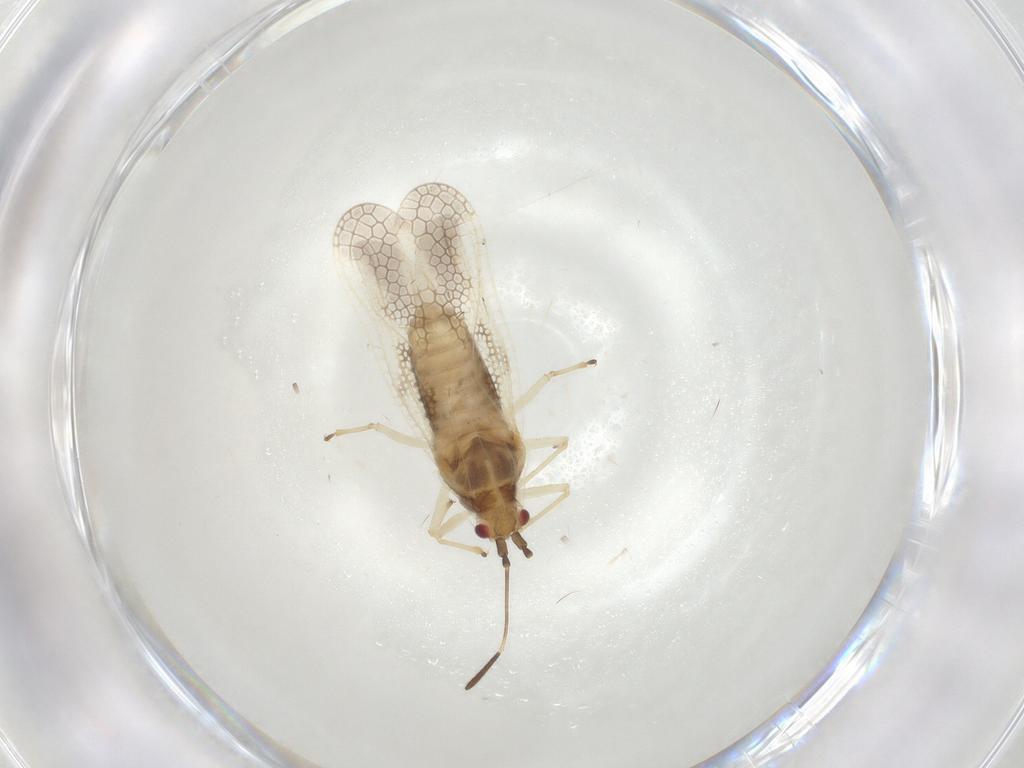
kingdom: Animalia
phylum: Arthropoda
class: Insecta
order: Hemiptera
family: Tingidae
